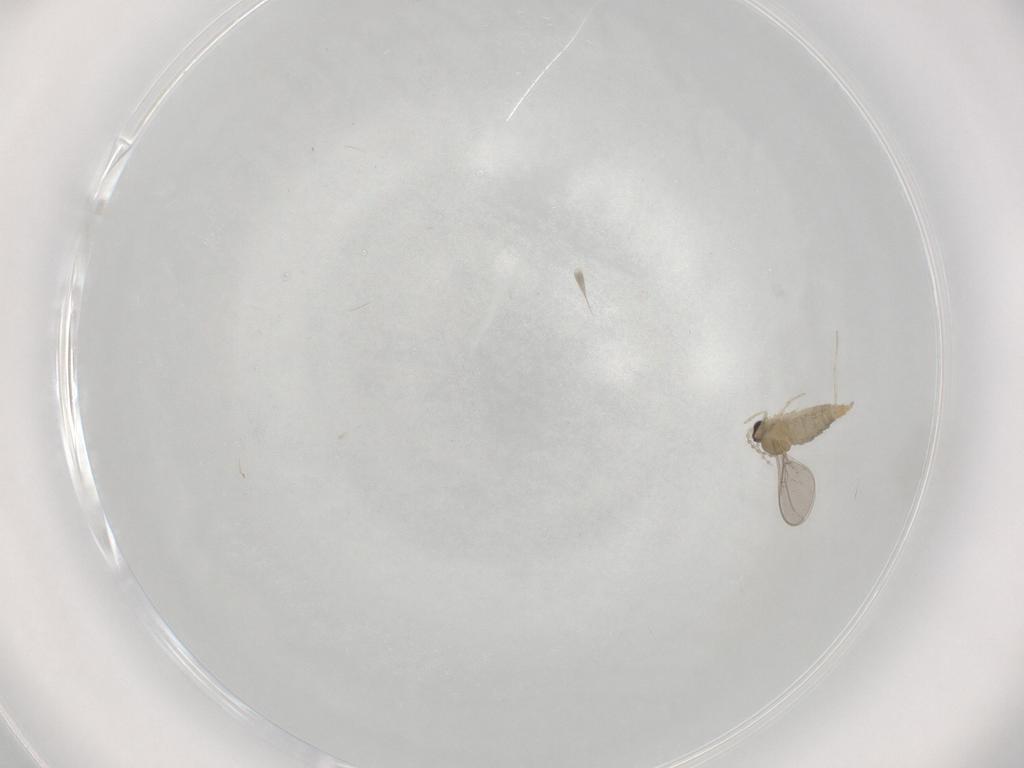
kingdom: Animalia
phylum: Arthropoda
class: Insecta
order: Diptera
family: Cecidomyiidae
